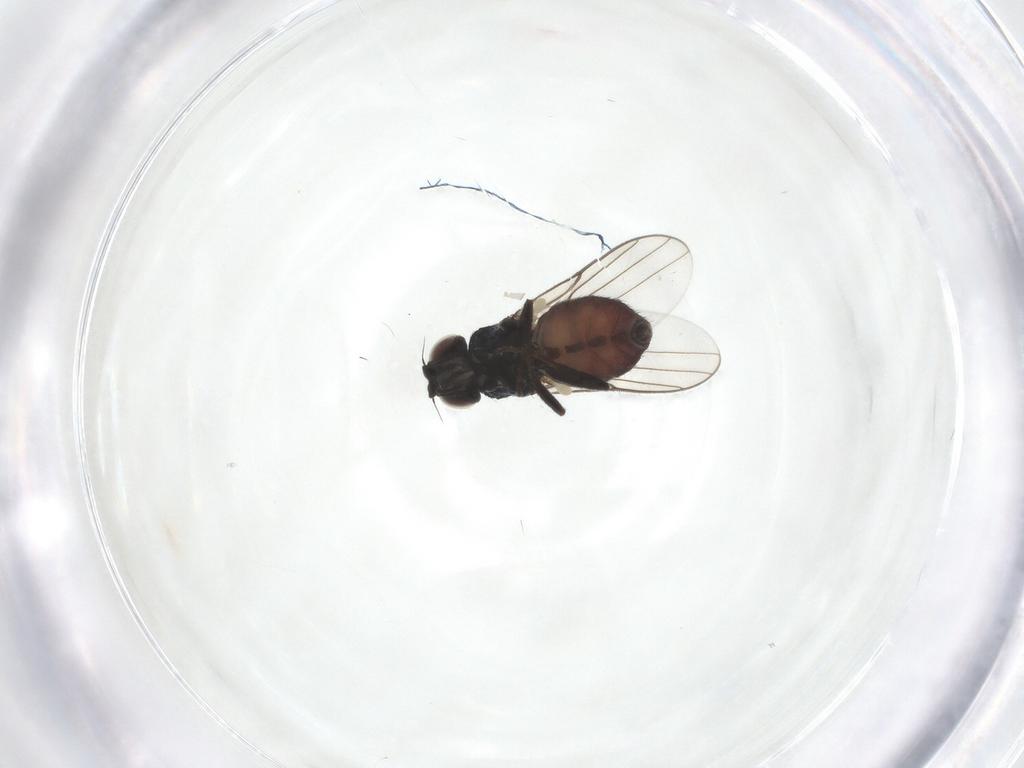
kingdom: Animalia
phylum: Arthropoda
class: Insecta
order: Diptera
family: Chloropidae
